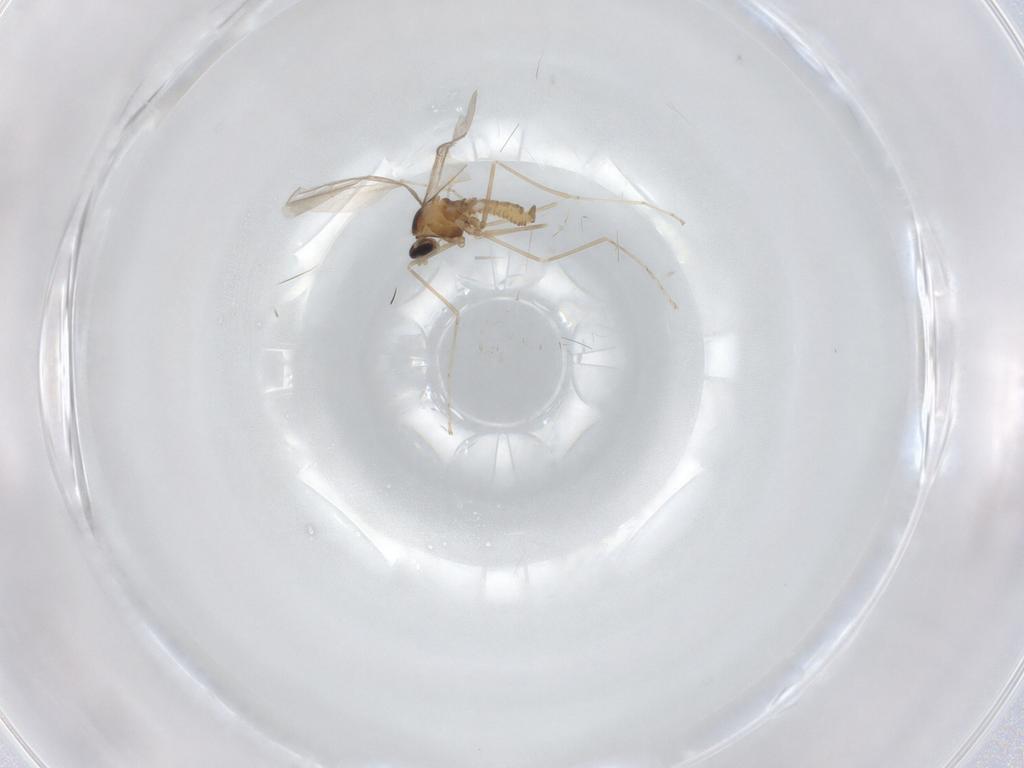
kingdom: Animalia
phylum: Arthropoda
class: Insecta
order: Diptera
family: Cecidomyiidae
